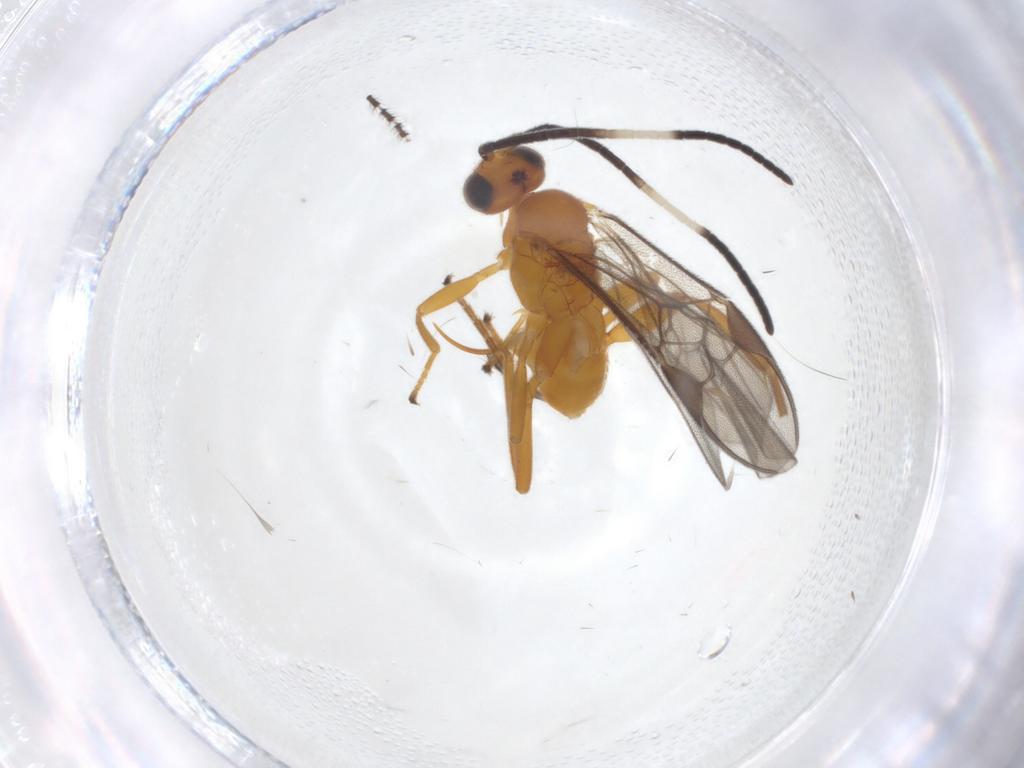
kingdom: Animalia
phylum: Arthropoda
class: Insecta
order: Hymenoptera
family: Braconidae
